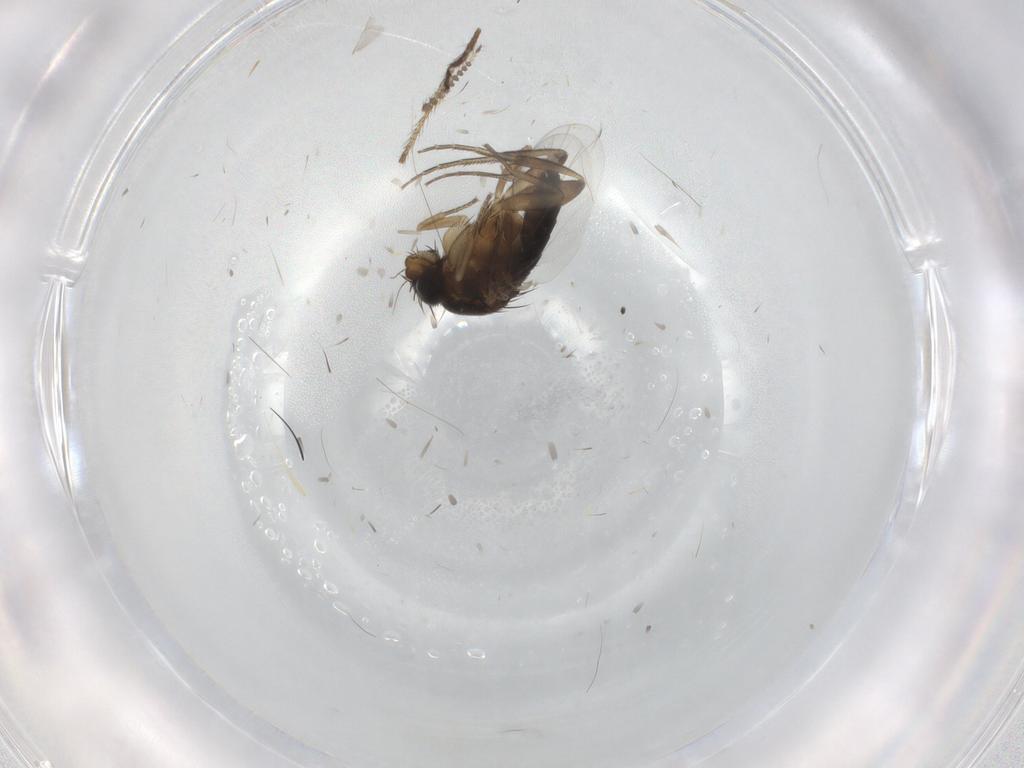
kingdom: Animalia
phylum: Arthropoda
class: Insecta
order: Diptera
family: Limoniidae
